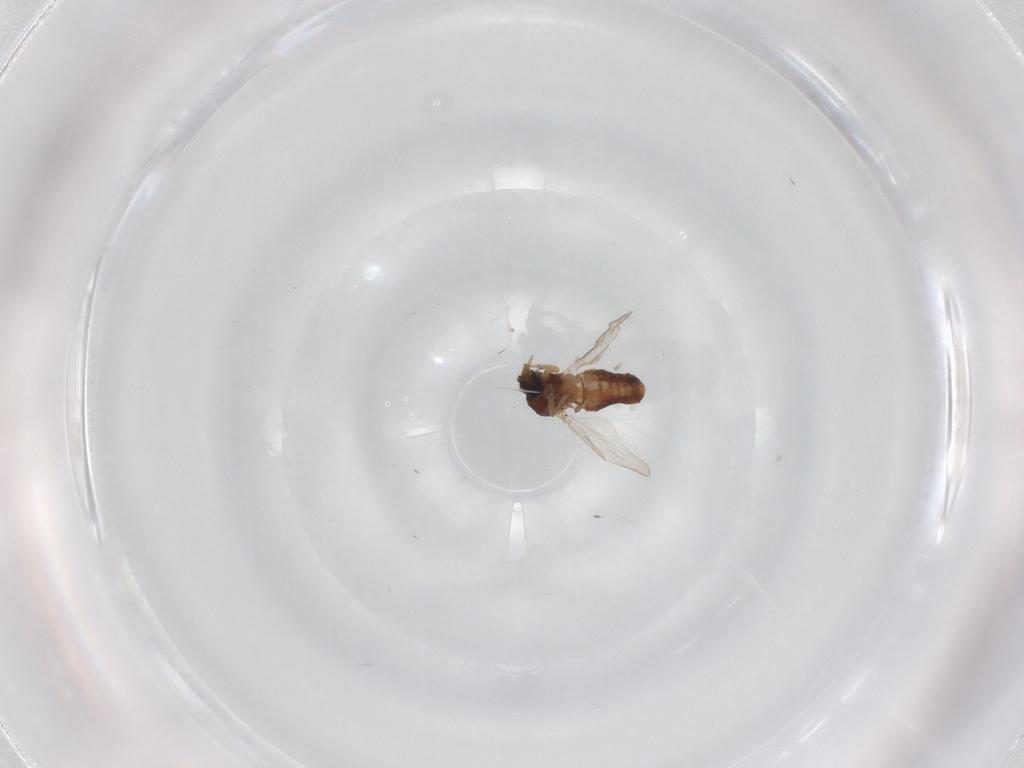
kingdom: Animalia
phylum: Arthropoda
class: Insecta
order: Diptera
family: Ceratopogonidae
